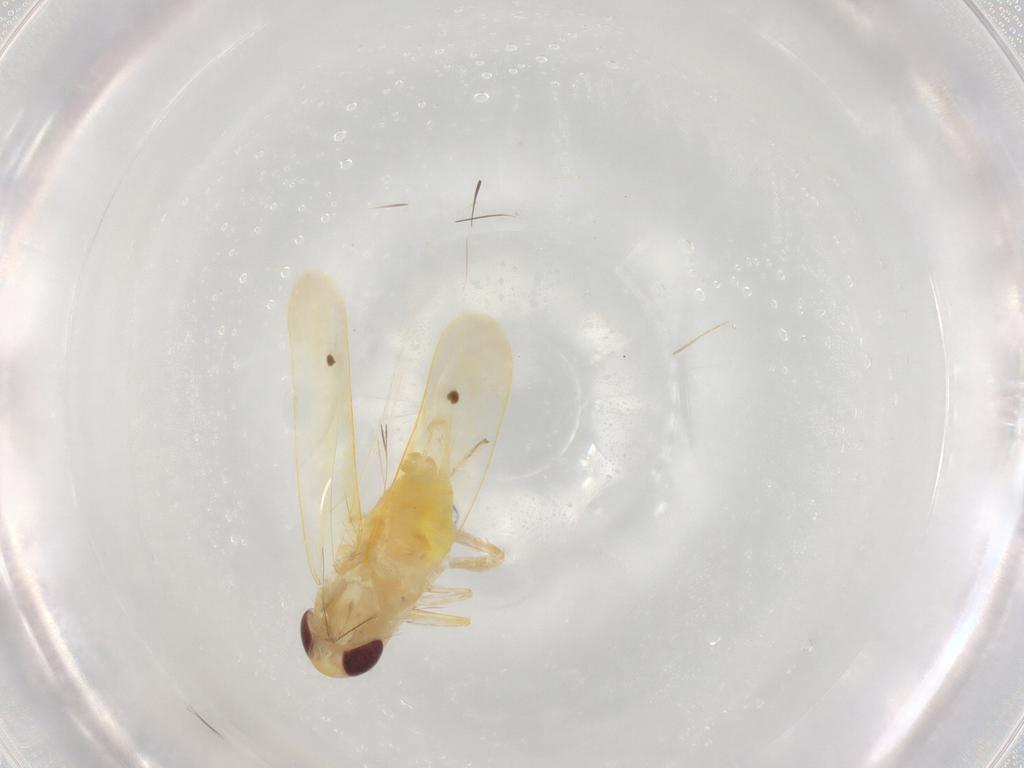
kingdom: Animalia
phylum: Arthropoda
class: Insecta
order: Hemiptera
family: Cicadellidae
